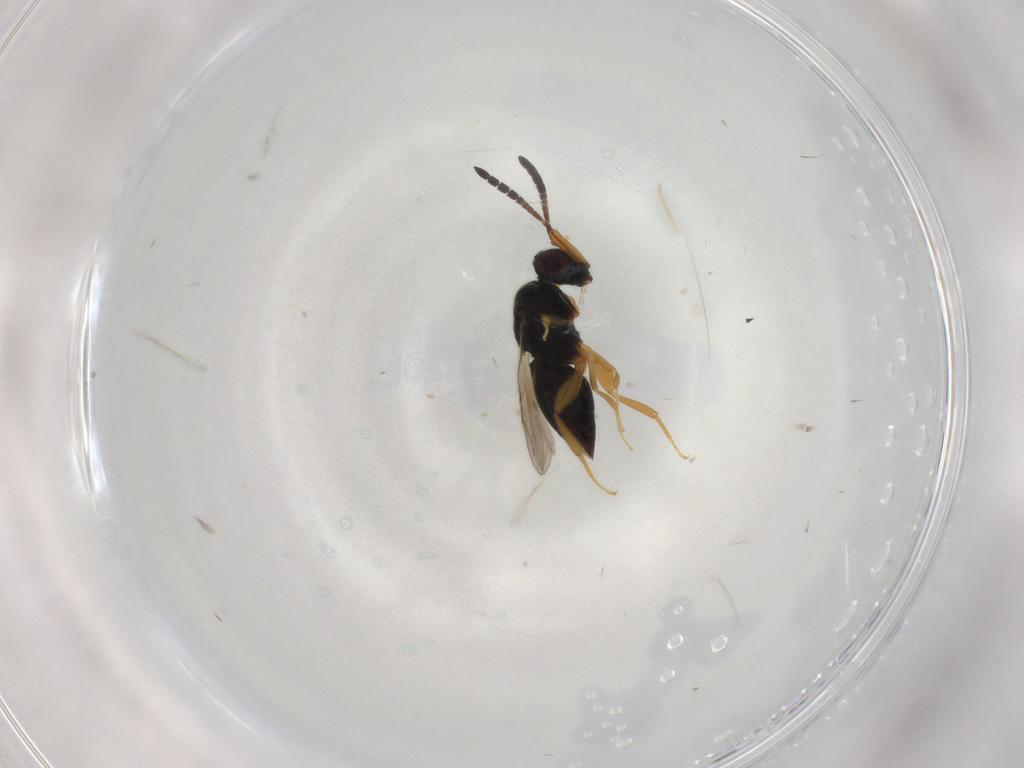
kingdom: Animalia
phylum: Arthropoda
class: Insecta
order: Hymenoptera
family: Ceraphronidae
